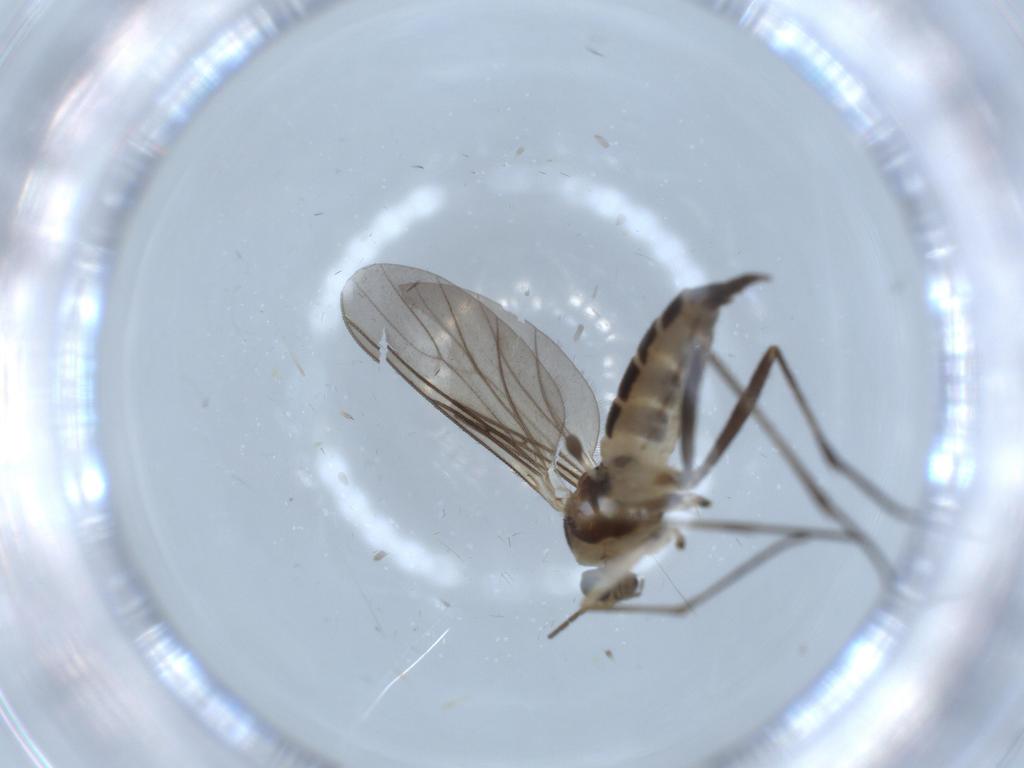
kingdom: Animalia
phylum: Arthropoda
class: Insecta
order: Diptera
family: Sciaridae
